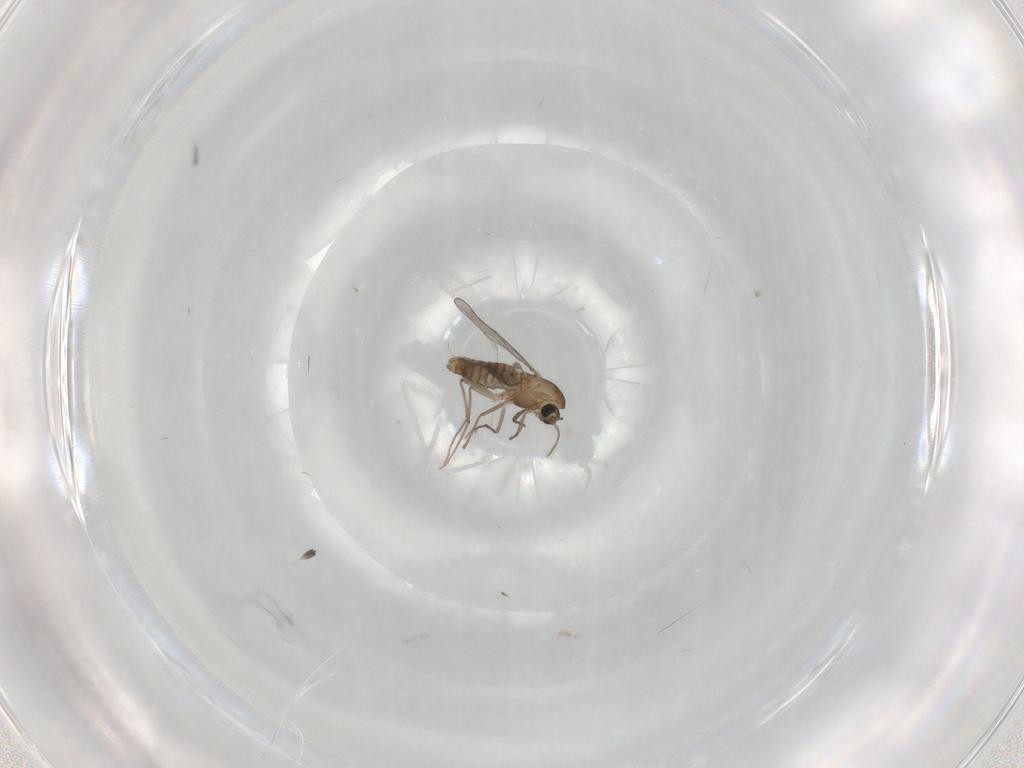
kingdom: Animalia
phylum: Arthropoda
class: Insecta
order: Diptera
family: Chironomidae
